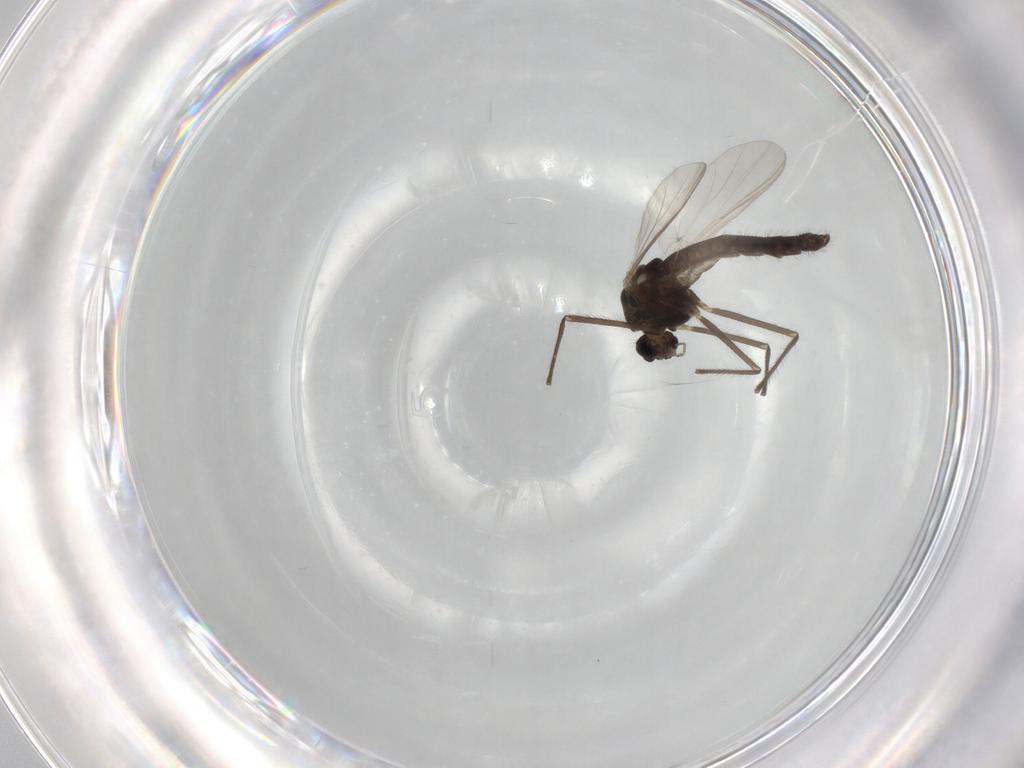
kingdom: Animalia
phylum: Arthropoda
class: Insecta
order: Diptera
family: Chironomidae
